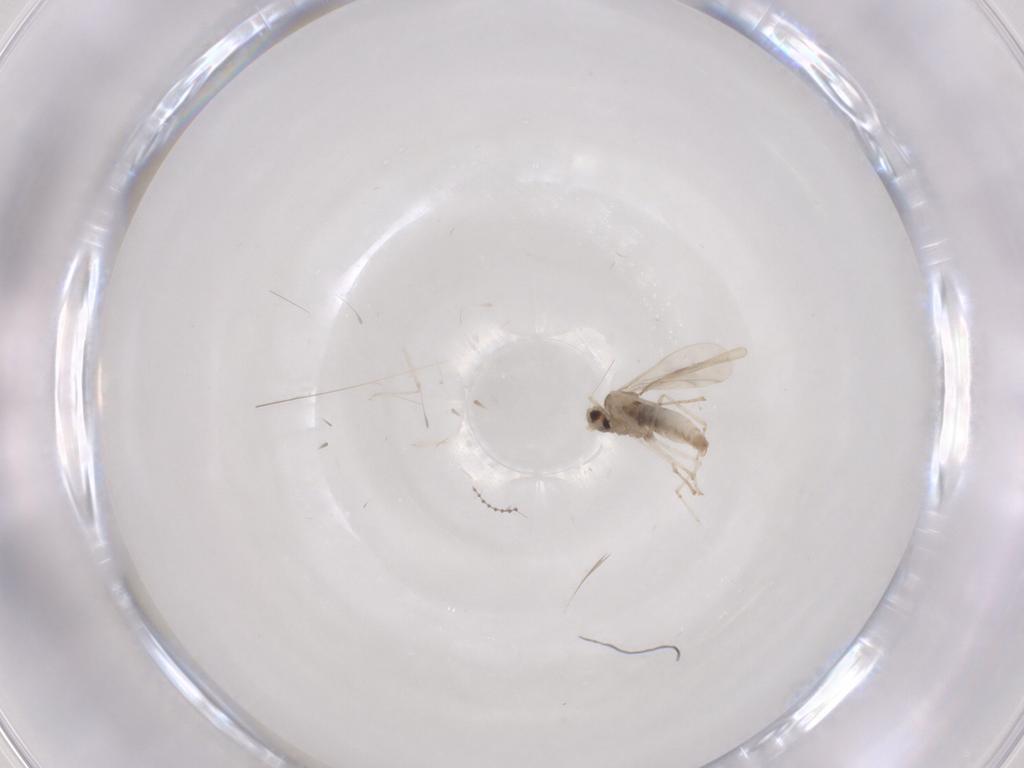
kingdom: Animalia
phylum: Arthropoda
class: Insecta
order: Diptera
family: Cecidomyiidae
